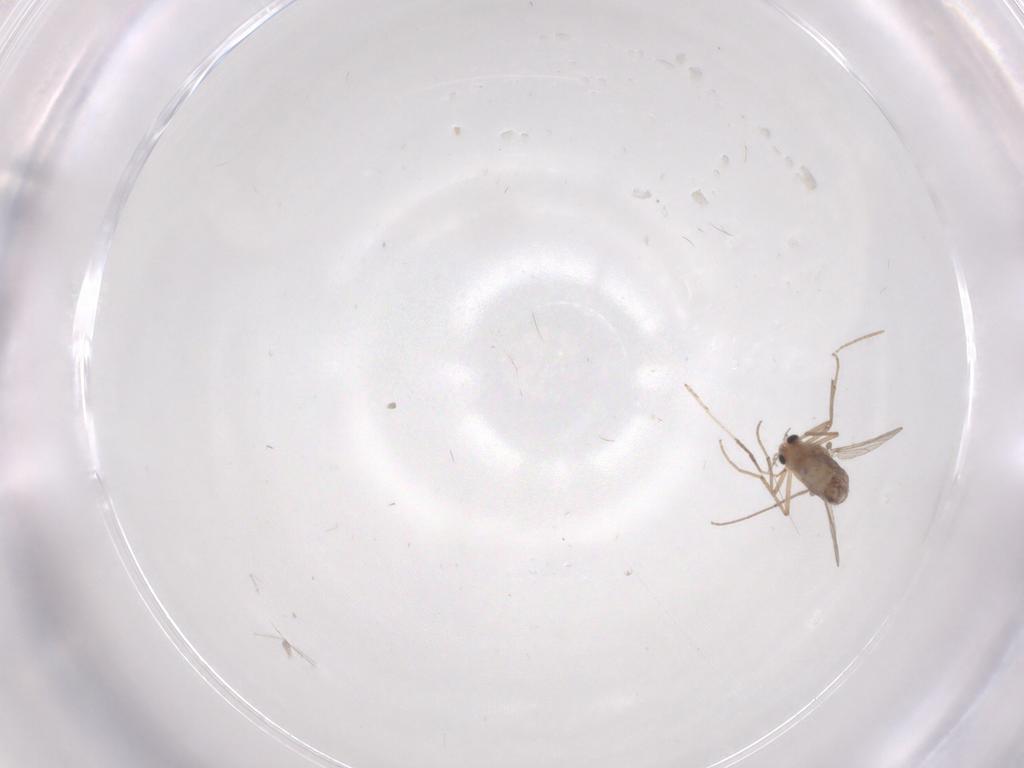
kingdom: Animalia
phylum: Arthropoda
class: Insecta
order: Diptera
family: Chironomidae
